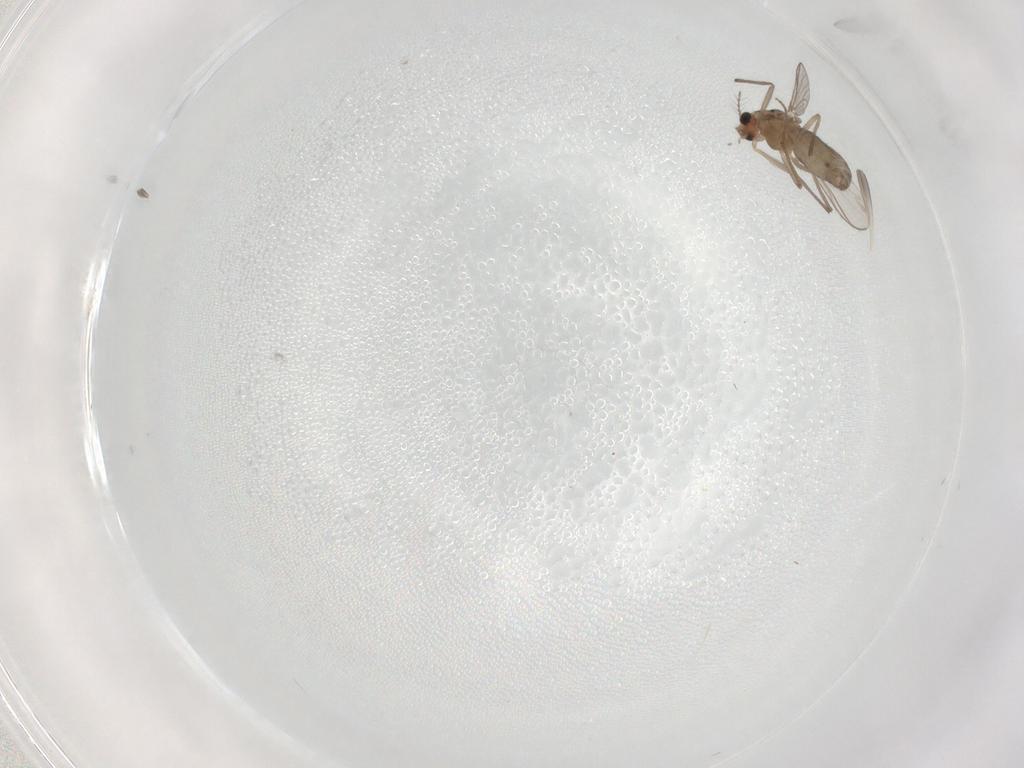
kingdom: Animalia
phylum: Arthropoda
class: Insecta
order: Diptera
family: Chironomidae
